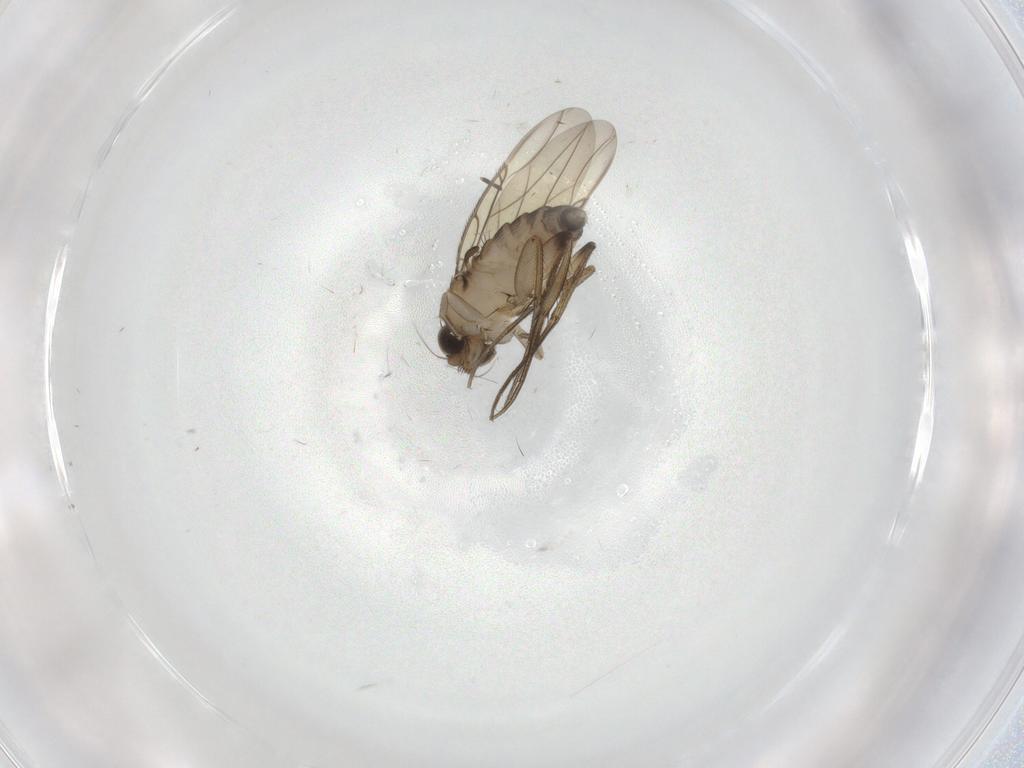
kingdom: Animalia
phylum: Arthropoda
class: Insecta
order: Diptera
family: Phoridae
